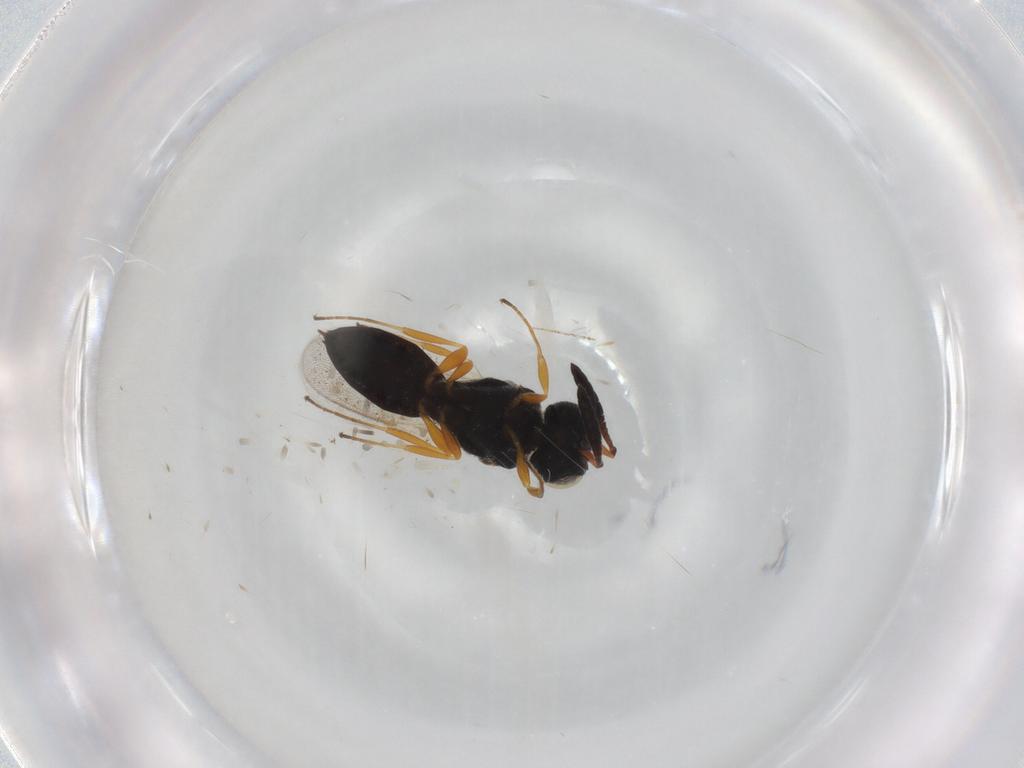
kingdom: Animalia
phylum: Arthropoda
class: Insecta
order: Hymenoptera
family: Scelionidae
